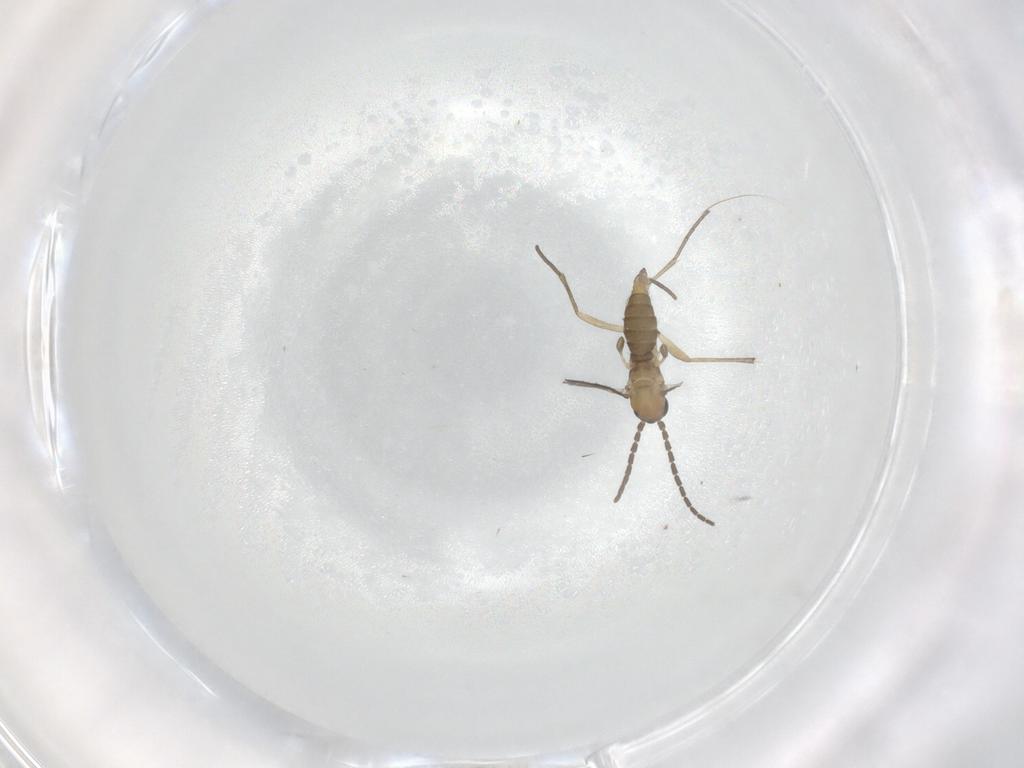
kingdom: Animalia
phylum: Arthropoda
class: Insecta
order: Diptera
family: Sciaridae
